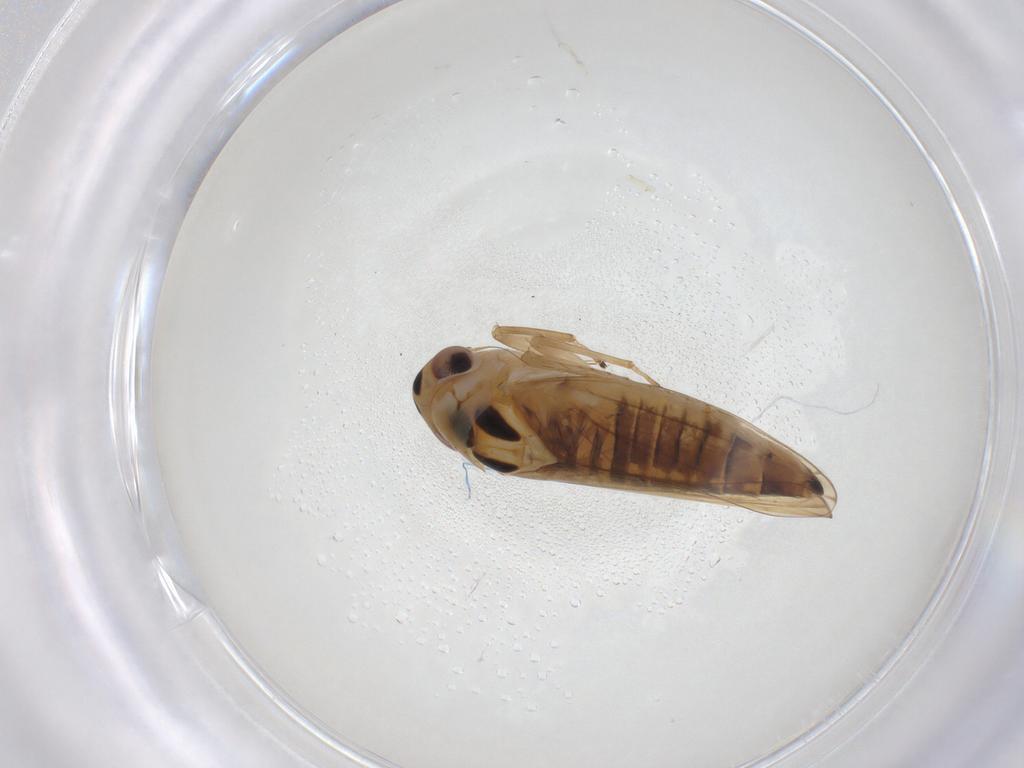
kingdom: Animalia
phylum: Arthropoda
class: Insecta
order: Hemiptera
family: Cicadellidae
